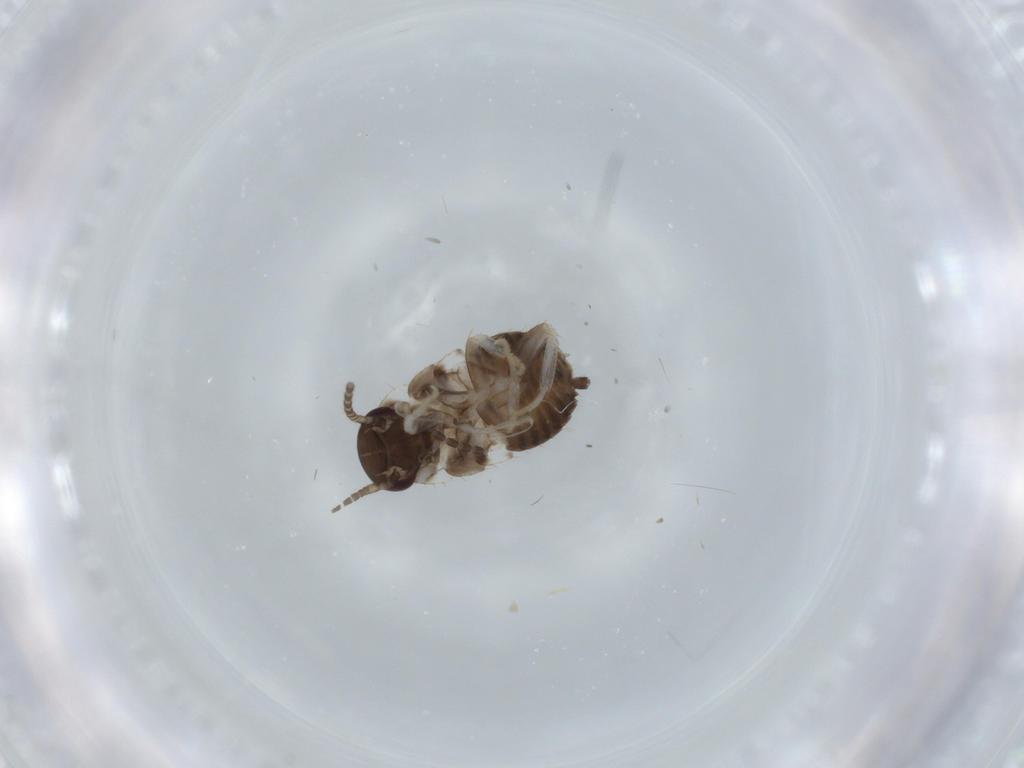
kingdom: Animalia
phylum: Arthropoda
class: Insecta
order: Blattodea
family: Ectobiidae
